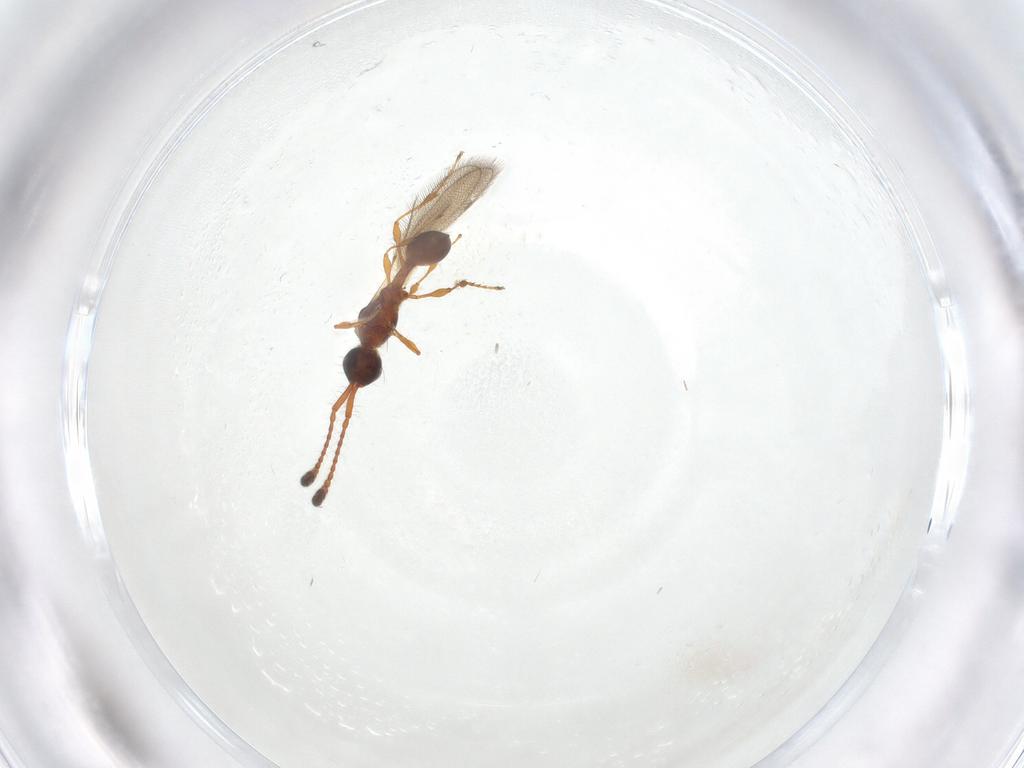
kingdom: Animalia
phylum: Arthropoda
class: Insecta
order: Hymenoptera
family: Diapriidae
